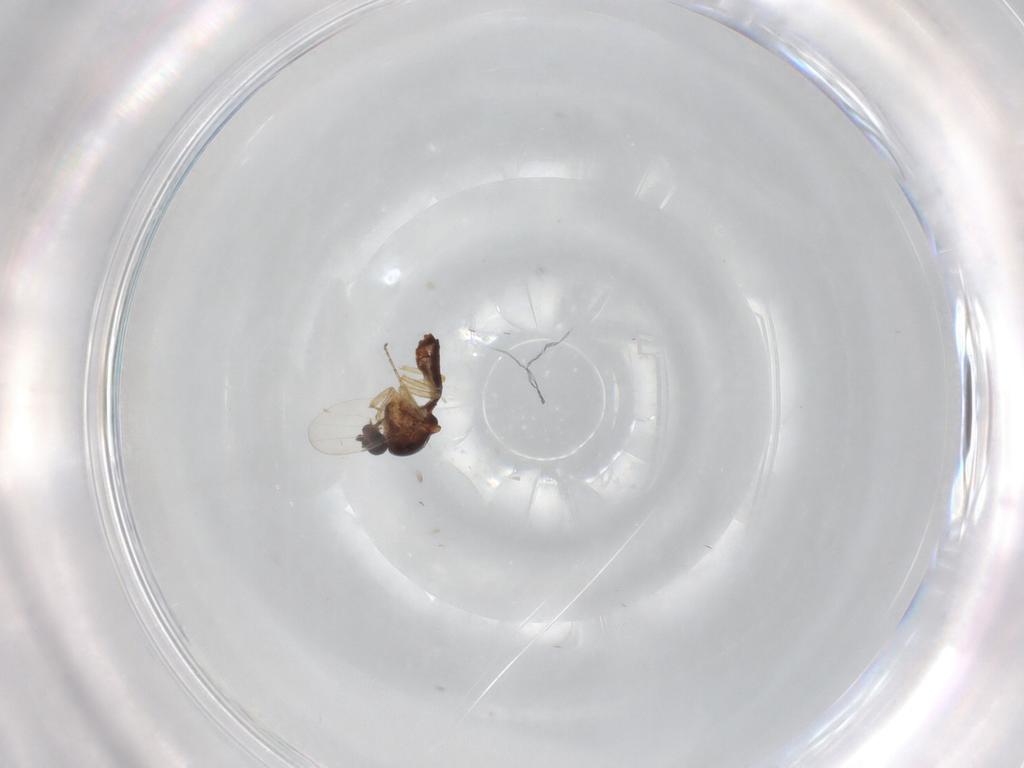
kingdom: Animalia
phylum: Arthropoda
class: Insecta
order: Diptera
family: Ceratopogonidae
